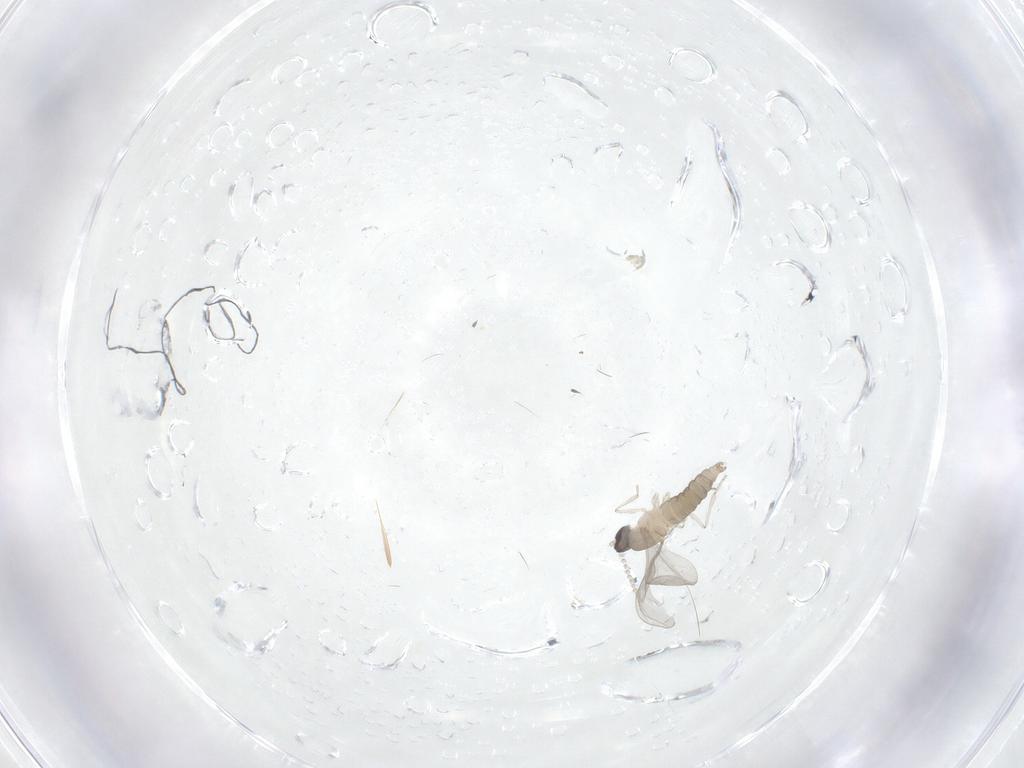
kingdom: Animalia
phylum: Arthropoda
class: Insecta
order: Diptera
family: Cecidomyiidae
